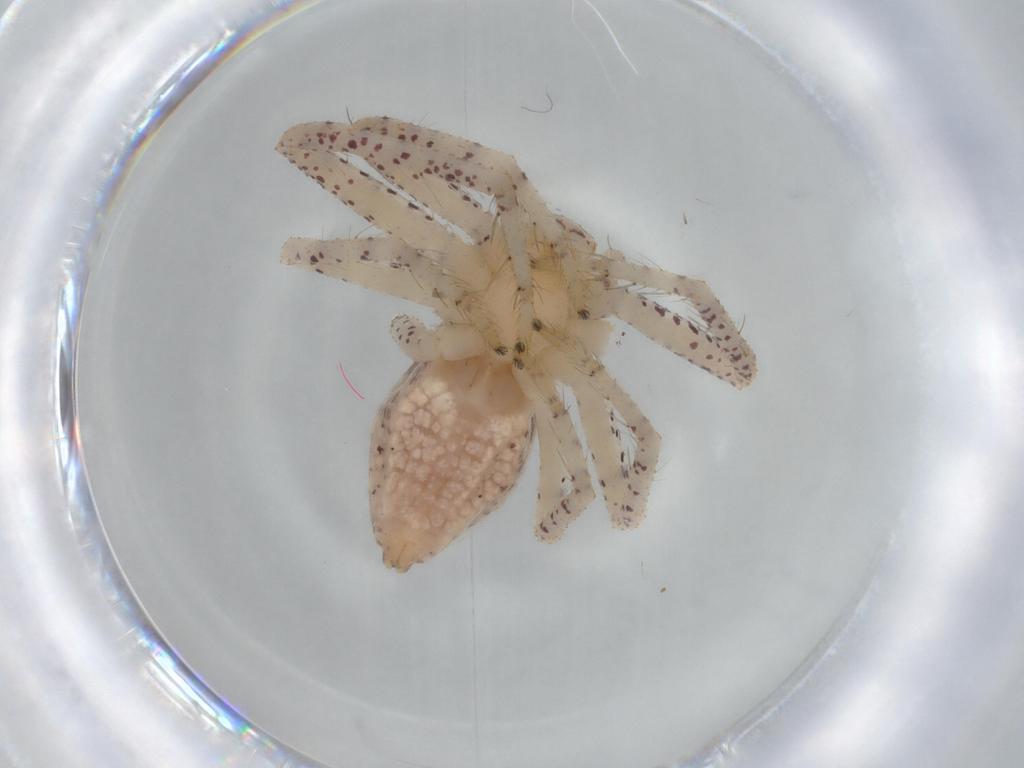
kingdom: Animalia
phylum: Arthropoda
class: Arachnida
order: Araneae
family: Philodromidae
